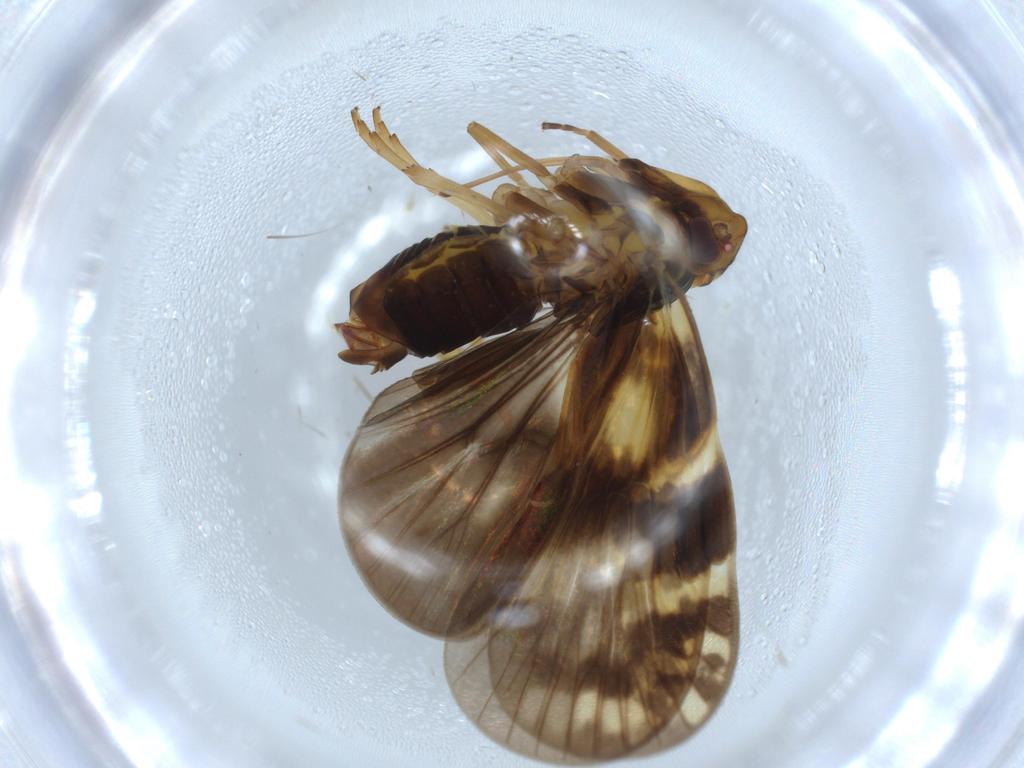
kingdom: Animalia
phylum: Arthropoda
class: Insecta
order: Hemiptera
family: Cixiidae
